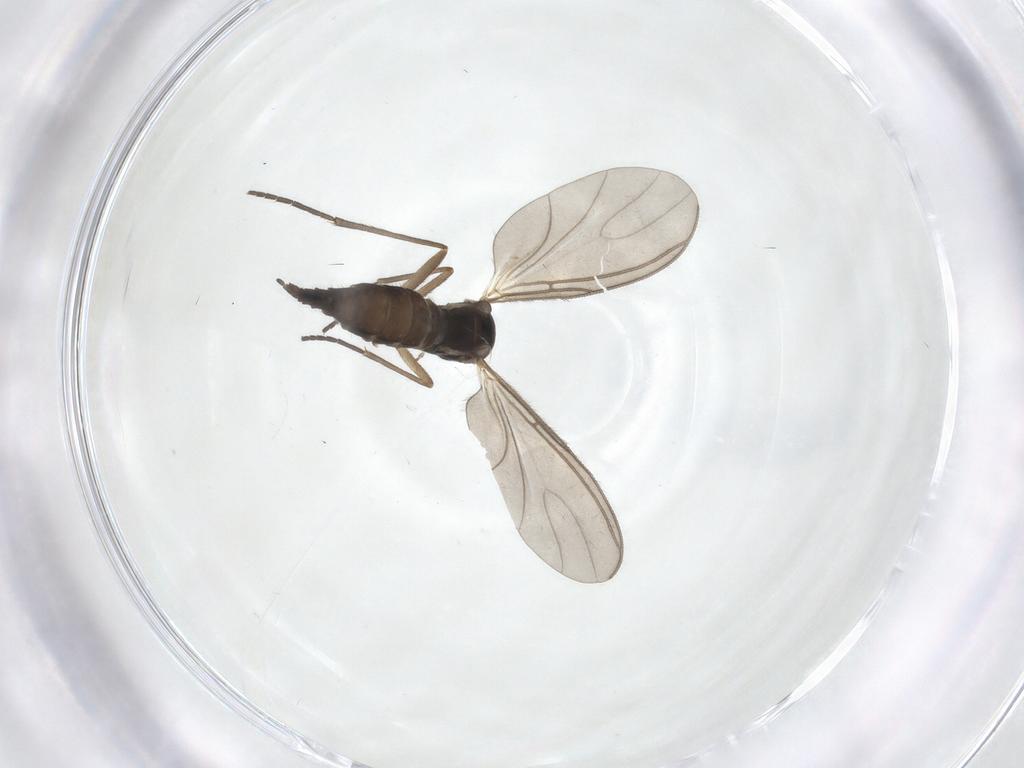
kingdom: Animalia
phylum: Arthropoda
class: Insecta
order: Diptera
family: Sciaridae
